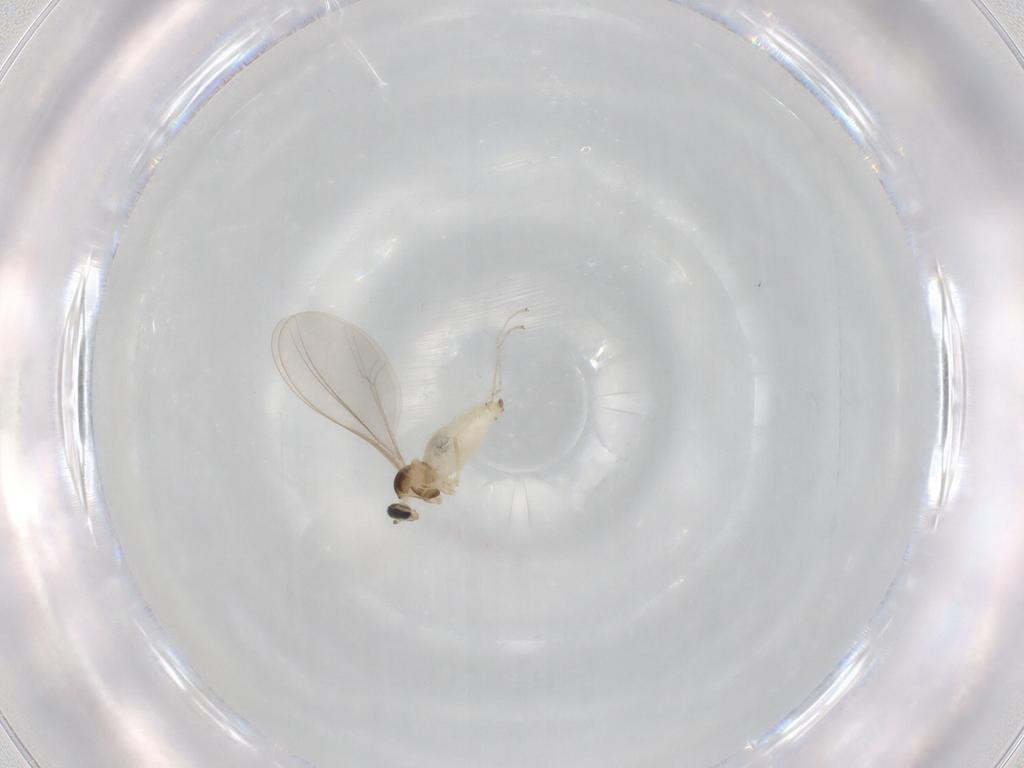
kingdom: Animalia
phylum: Arthropoda
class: Insecta
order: Diptera
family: Cecidomyiidae
